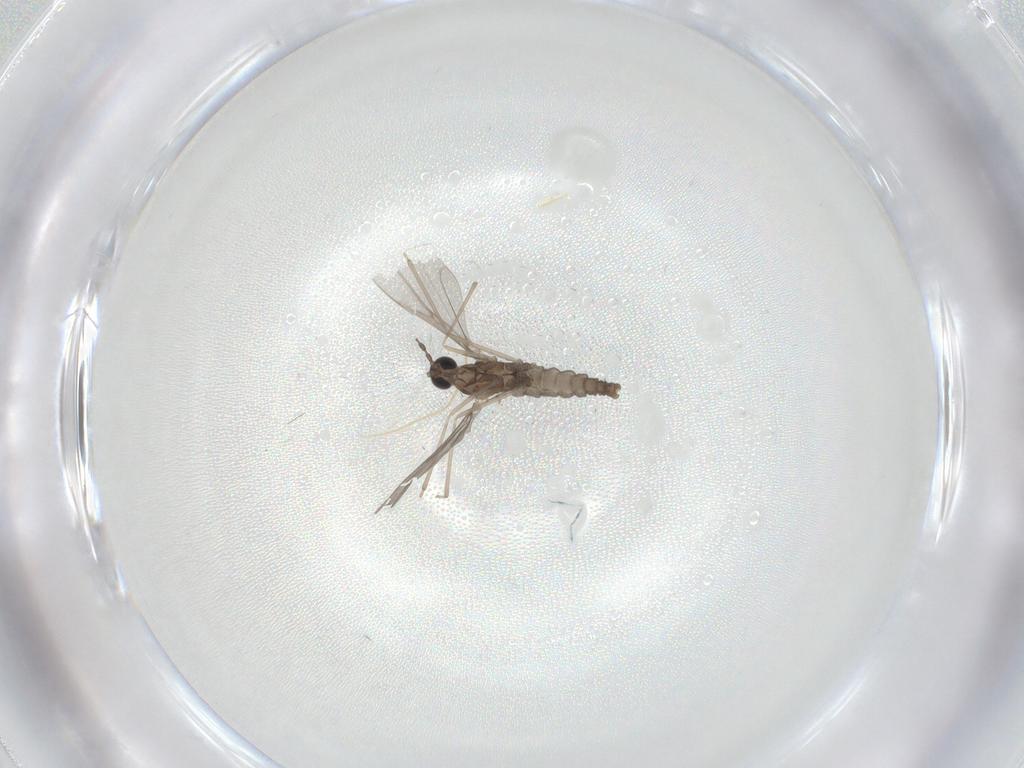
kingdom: Animalia
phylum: Arthropoda
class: Insecta
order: Diptera
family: Cecidomyiidae
